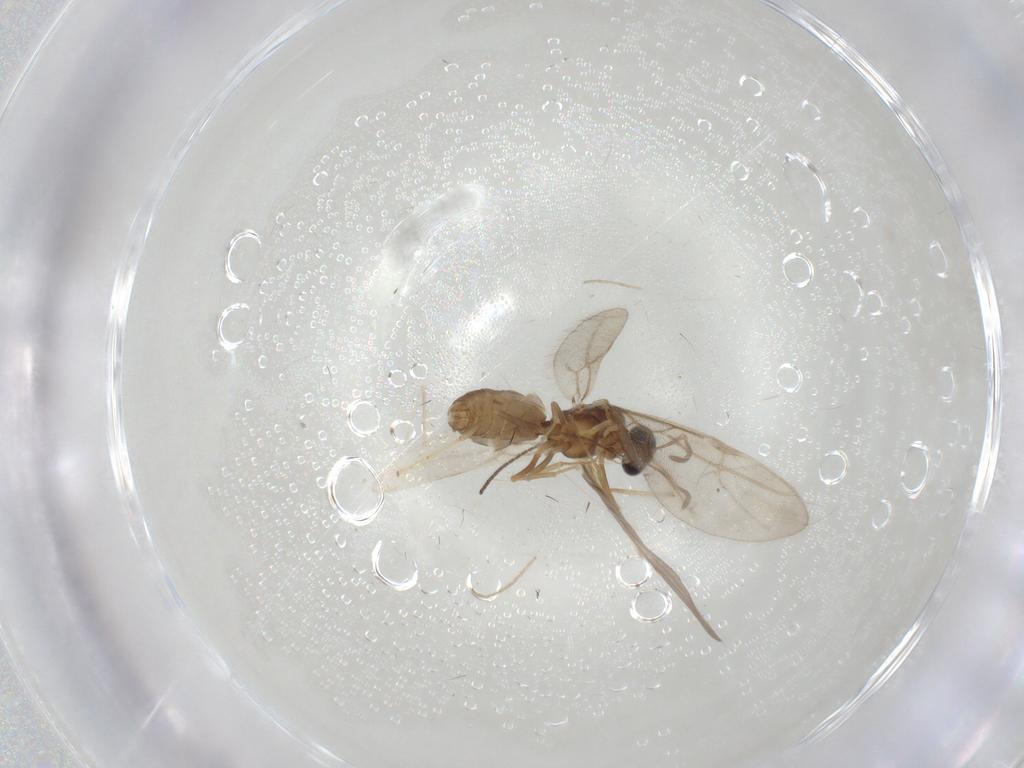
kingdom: Animalia
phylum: Arthropoda
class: Insecta
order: Hymenoptera
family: Formicidae
